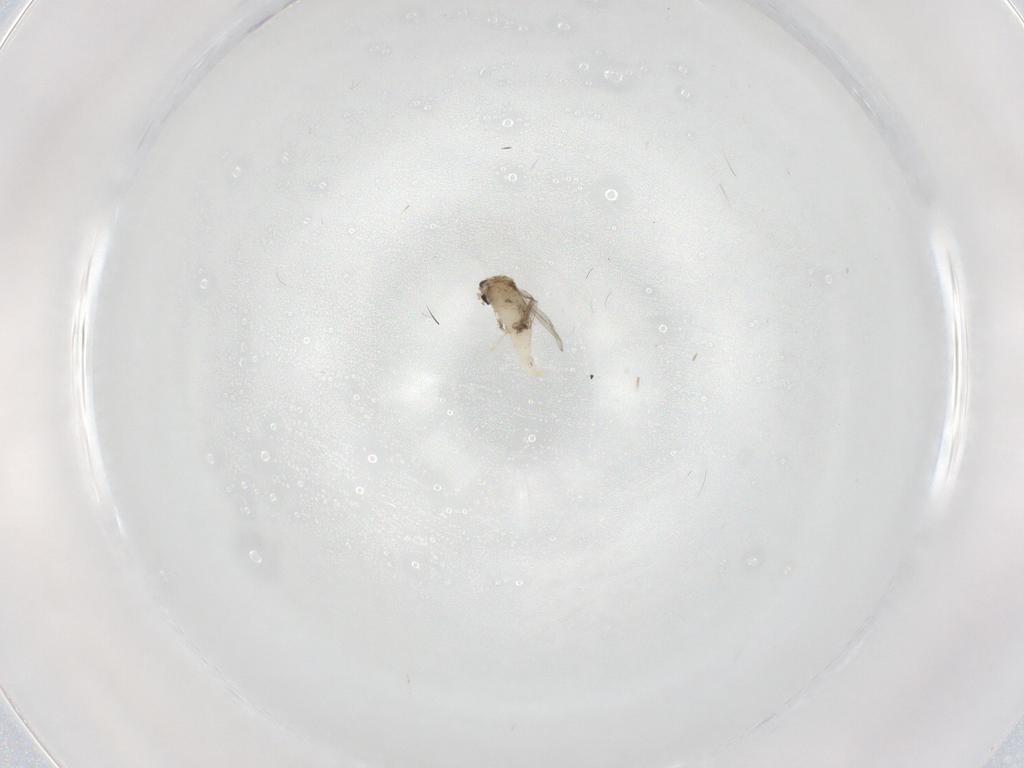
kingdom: Animalia
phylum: Arthropoda
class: Insecta
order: Diptera
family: Cecidomyiidae
